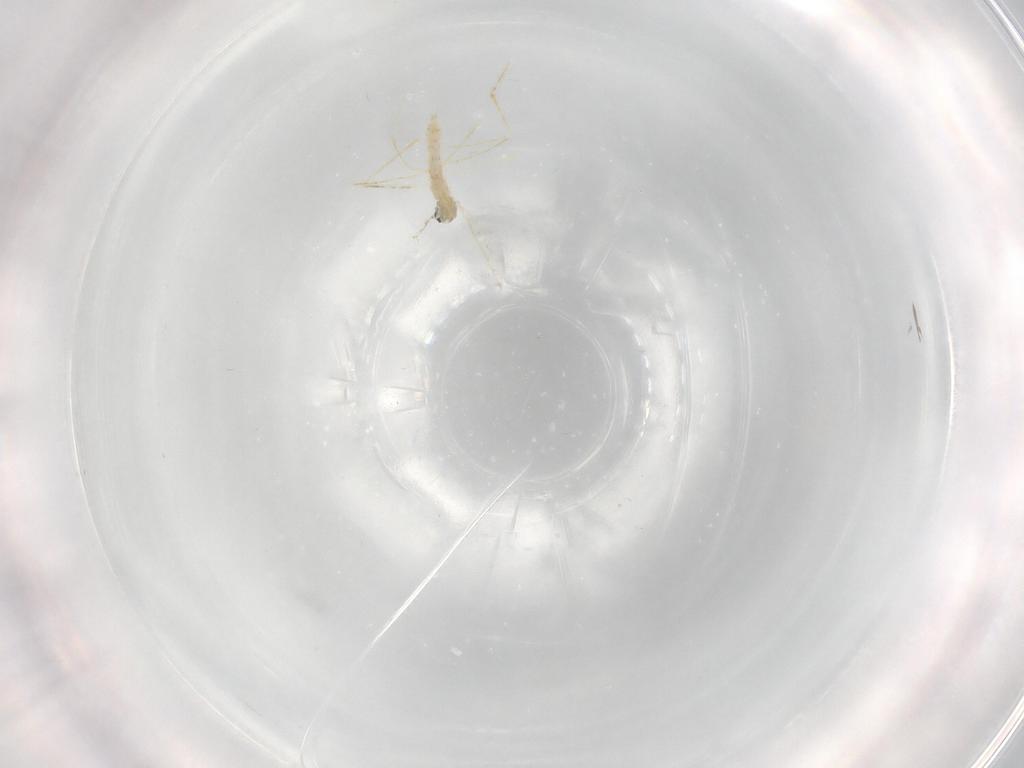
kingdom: Animalia
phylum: Arthropoda
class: Insecta
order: Diptera
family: Cecidomyiidae
